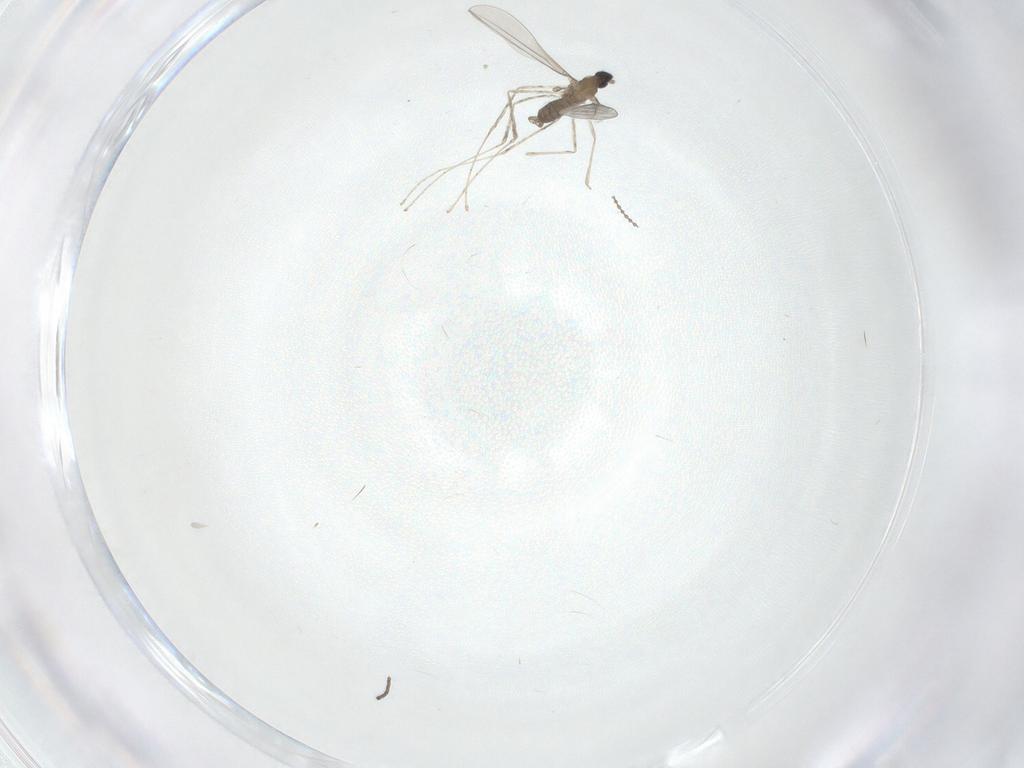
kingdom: Animalia
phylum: Arthropoda
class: Insecta
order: Diptera
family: Cecidomyiidae
